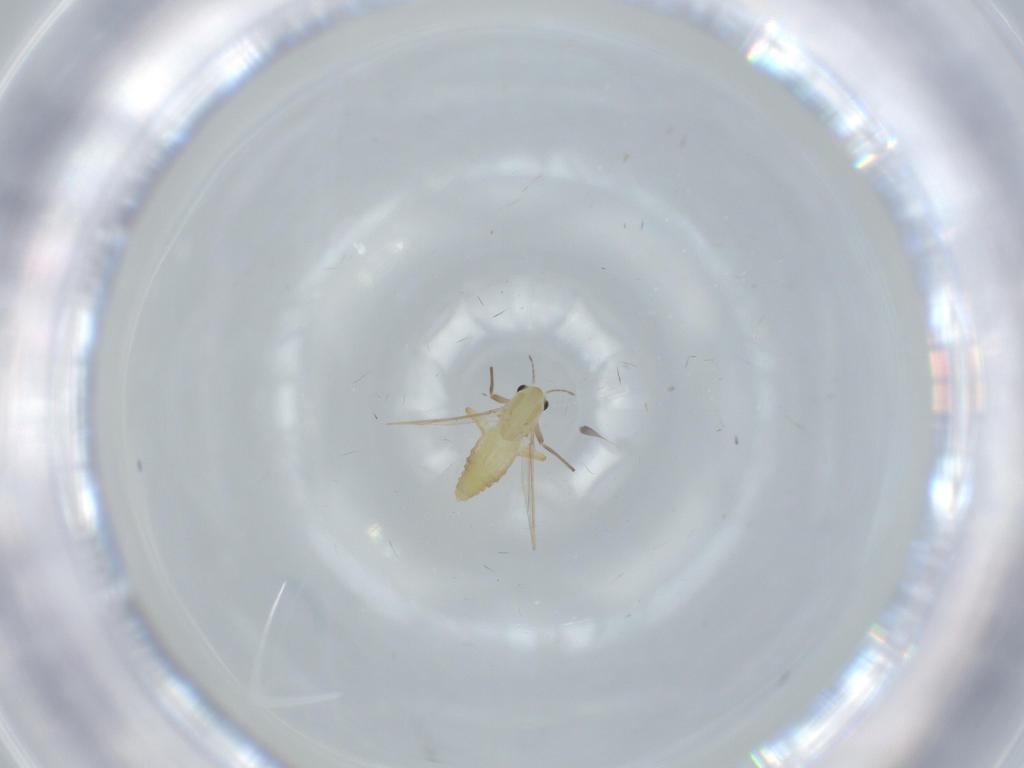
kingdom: Animalia
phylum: Arthropoda
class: Insecta
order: Diptera
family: Chironomidae
